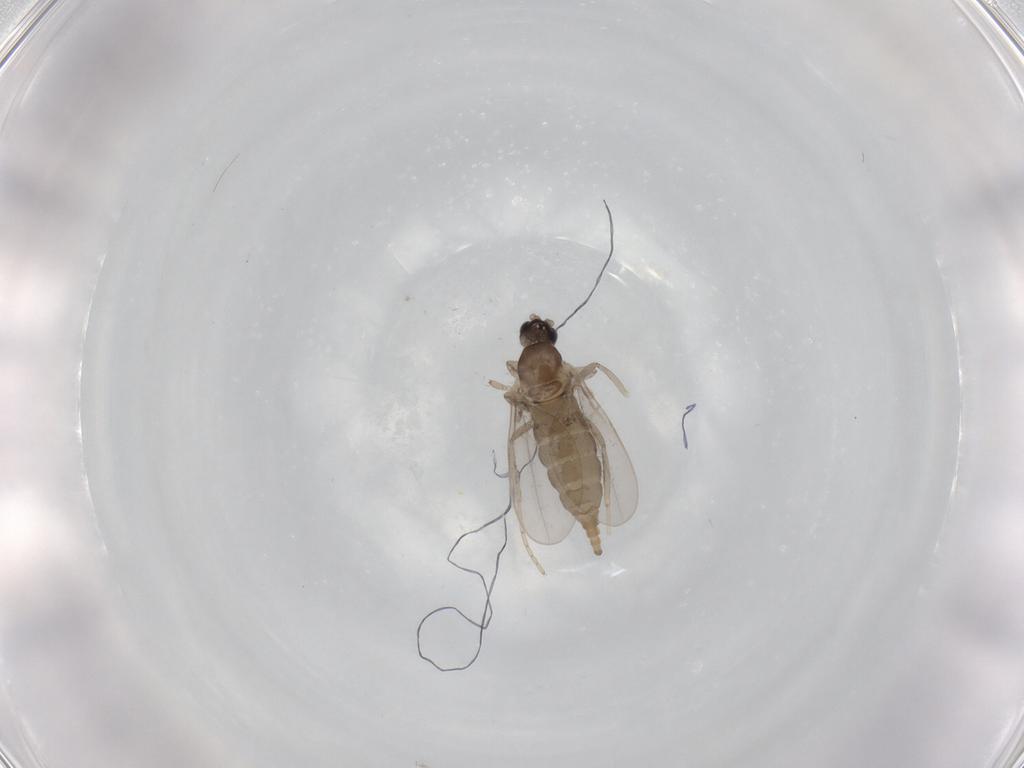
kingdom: Animalia
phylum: Arthropoda
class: Insecta
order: Diptera
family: Cecidomyiidae
